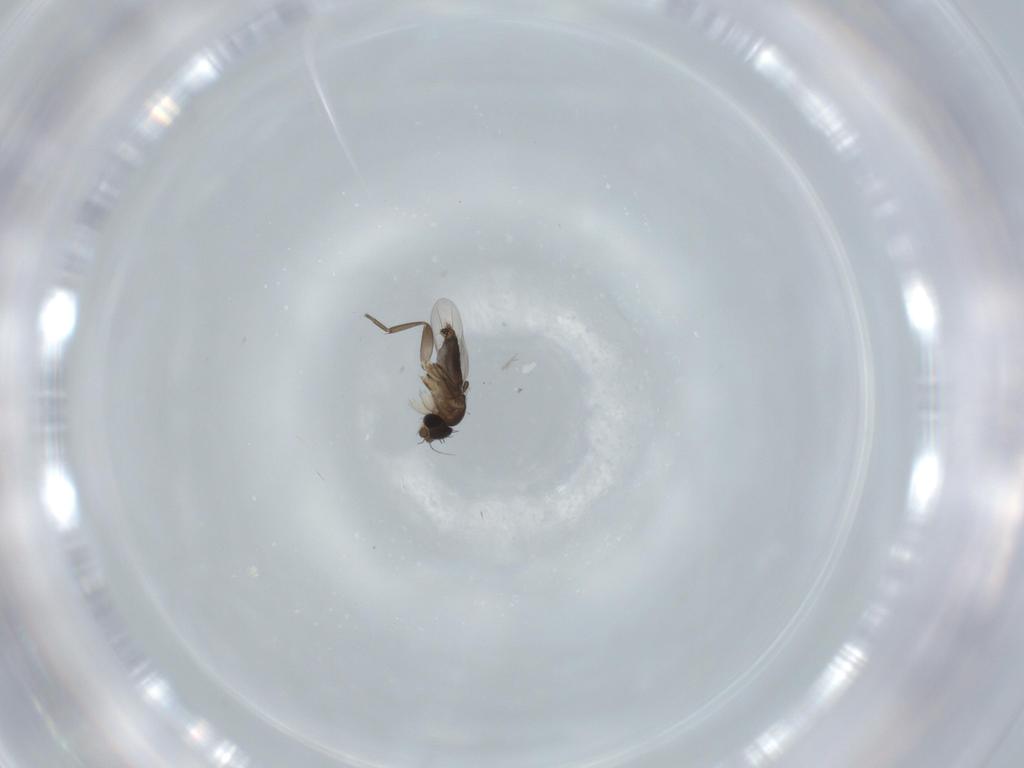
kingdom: Animalia
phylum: Arthropoda
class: Insecta
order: Diptera
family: Phoridae
